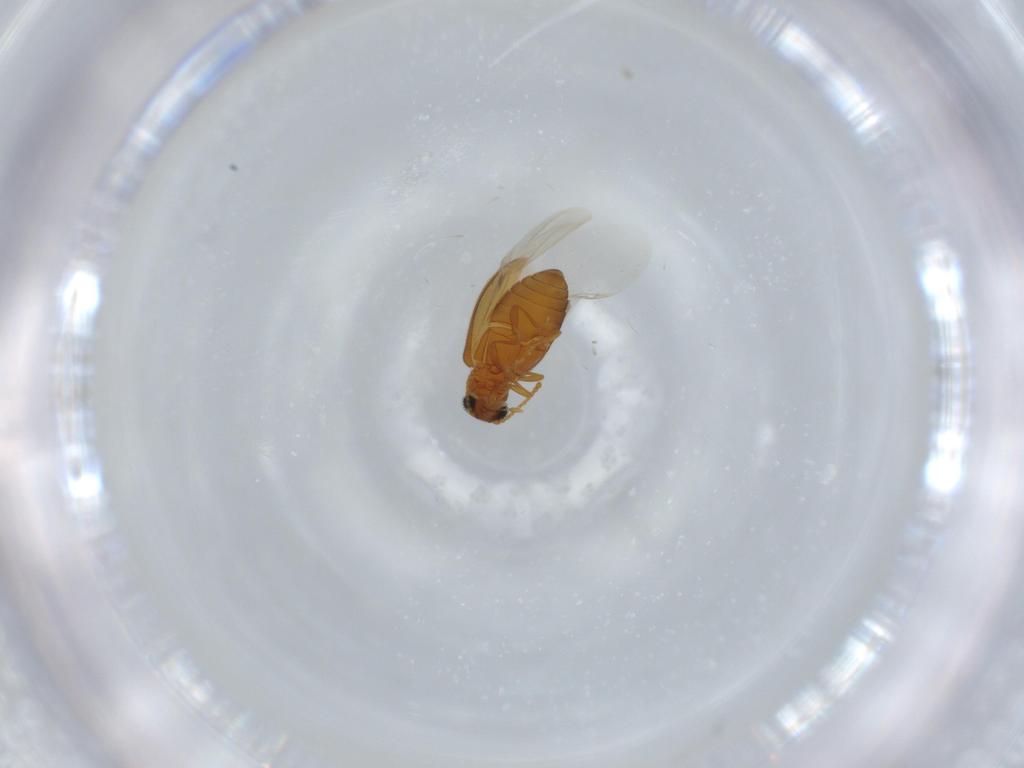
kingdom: Animalia
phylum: Arthropoda
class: Insecta
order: Coleoptera
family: Aderidae
